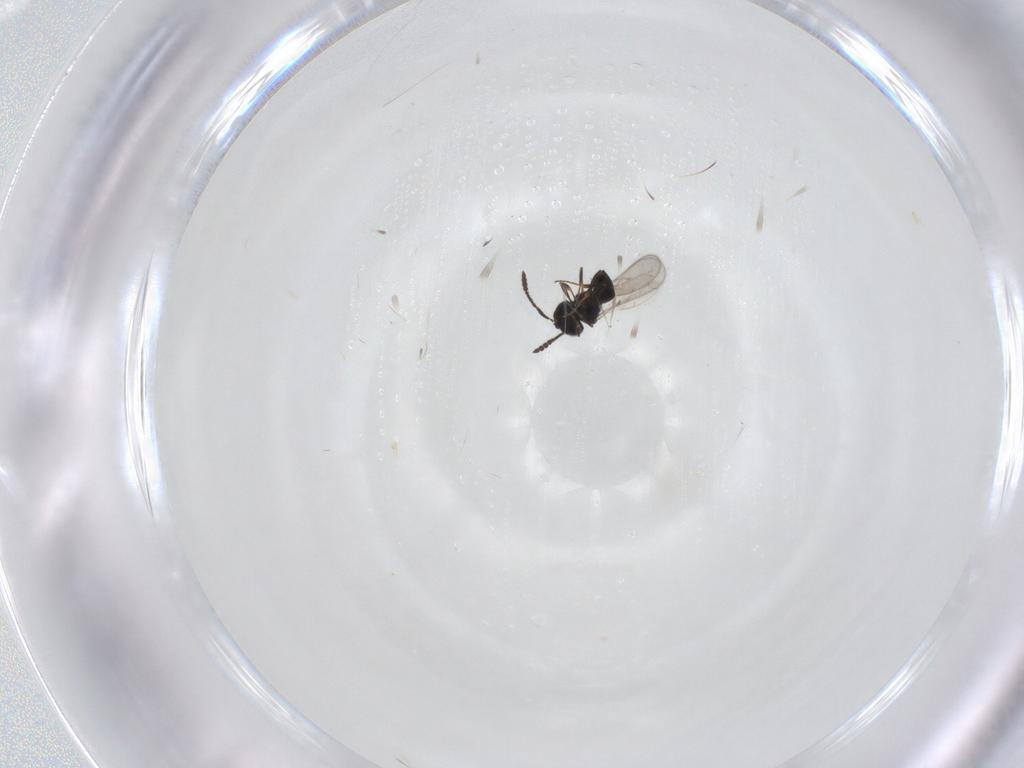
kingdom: Animalia
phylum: Arthropoda
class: Insecta
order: Hymenoptera
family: Scelionidae
